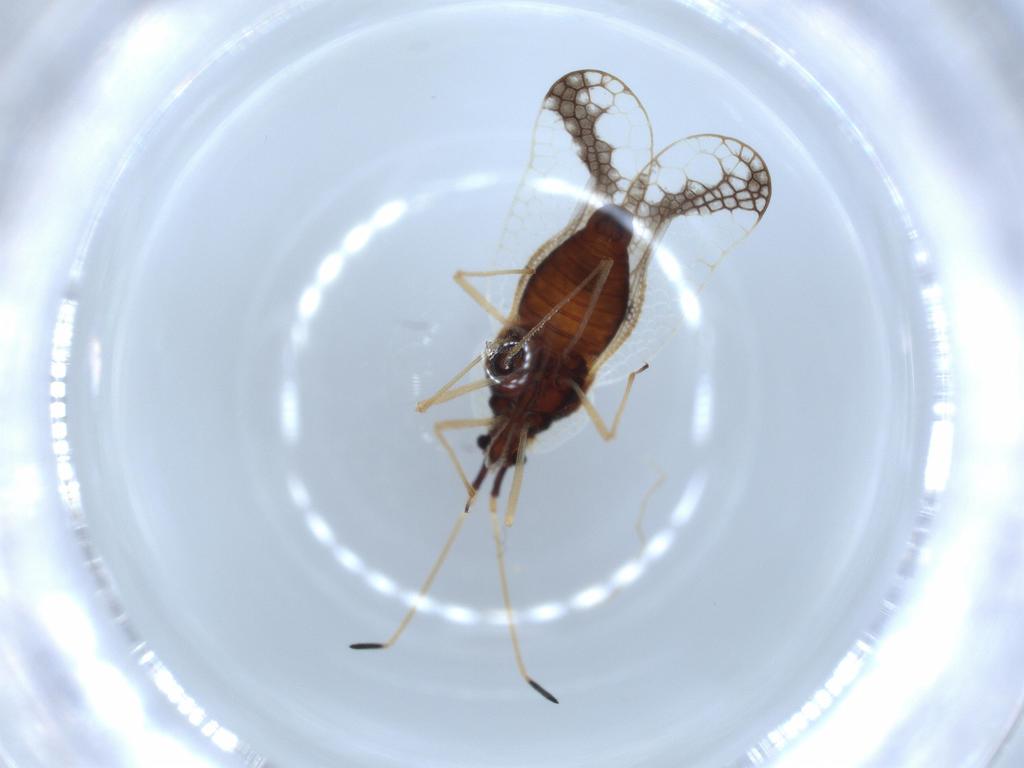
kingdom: Animalia
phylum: Arthropoda
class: Insecta
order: Hemiptera
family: Tingidae
